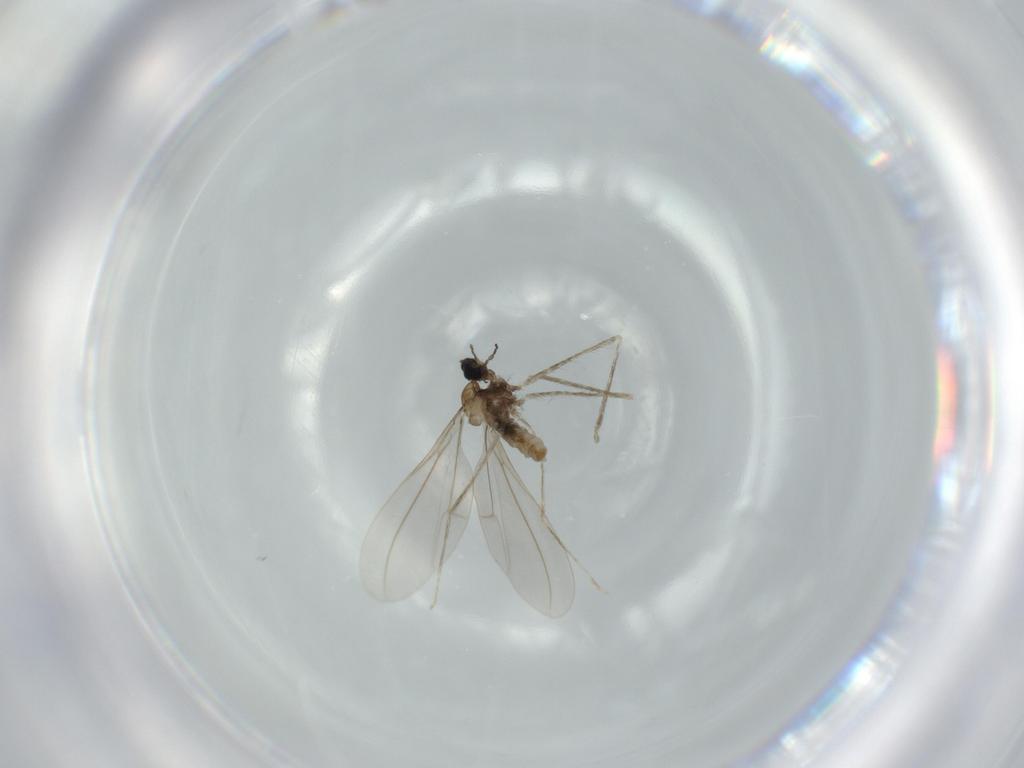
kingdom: Animalia
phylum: Arthropoda
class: Insecta
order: Diptera
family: Cecidomyiidae
